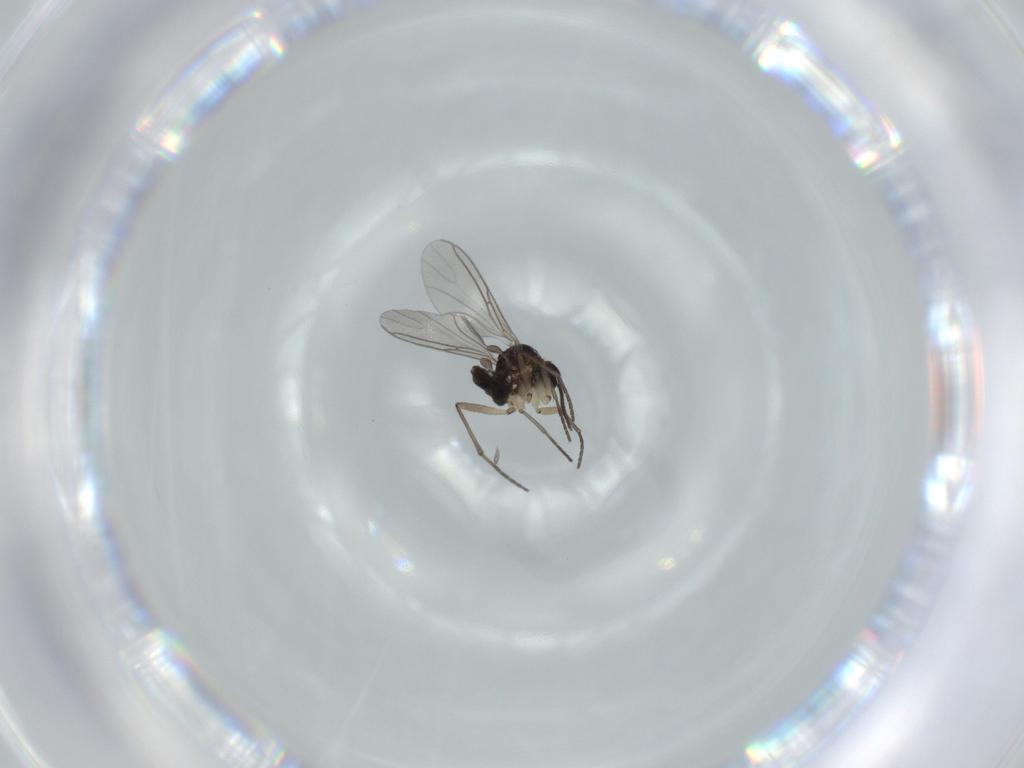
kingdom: Animalia
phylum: Arthropoda
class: Insecta
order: Diptera
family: Sciaridae
